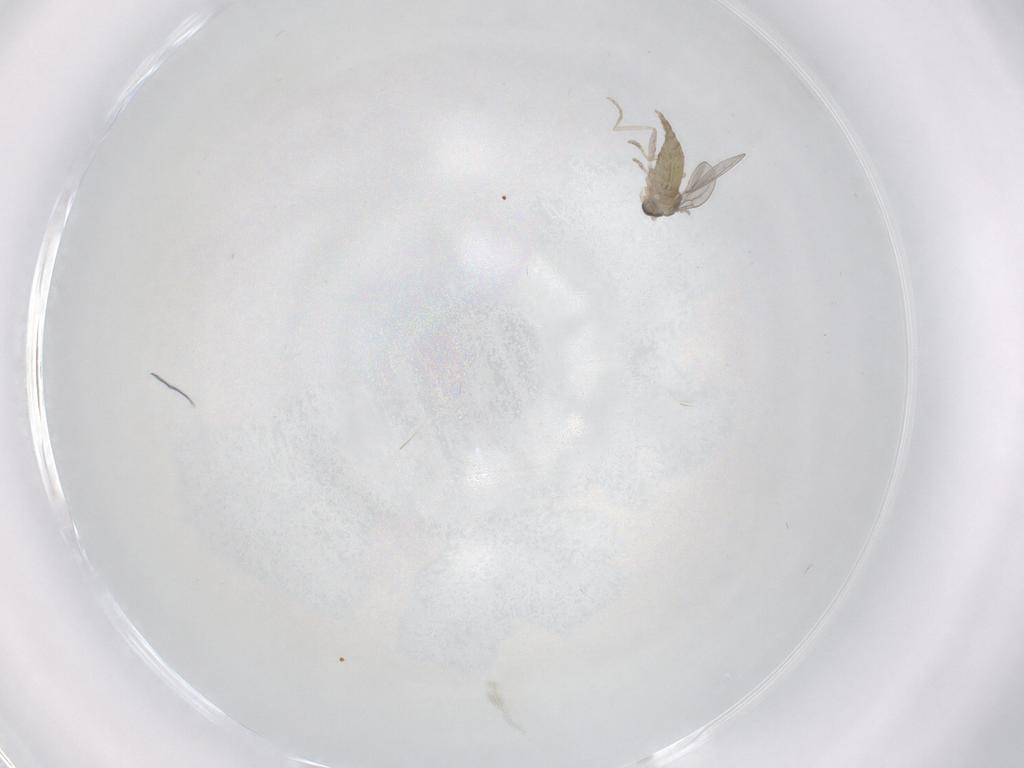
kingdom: Animalia
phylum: Arthropoda
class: Insecta
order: Diptera
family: Cecidomyiidae
